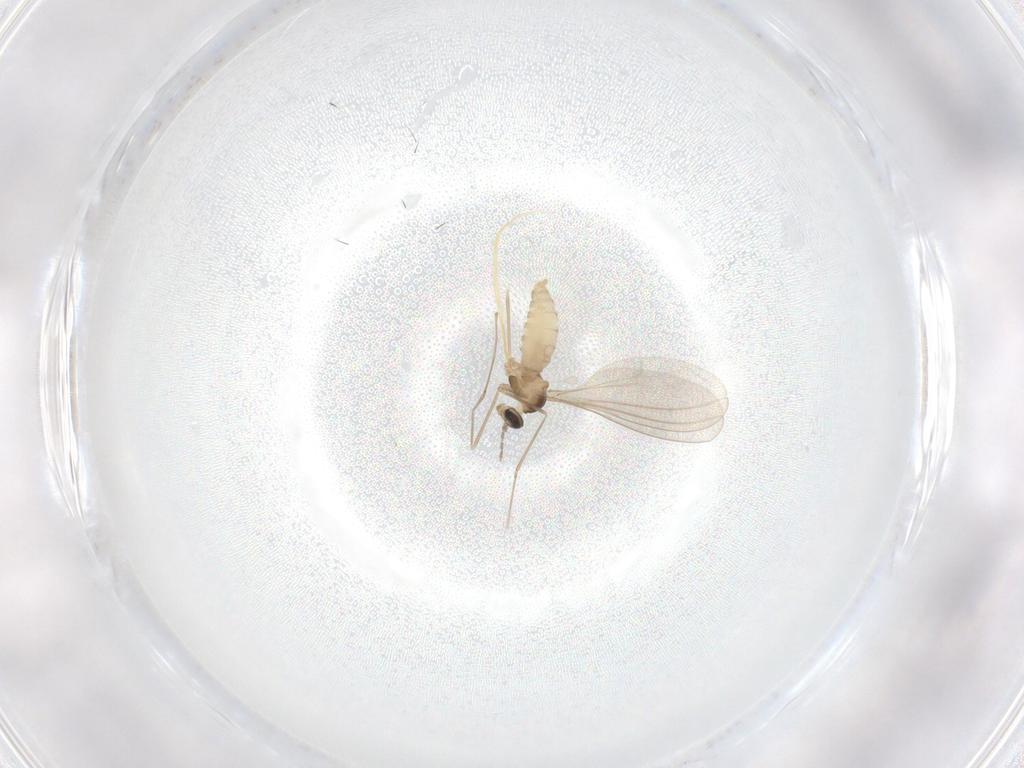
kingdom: Animalia
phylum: Arthropoda
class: Insecta
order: Diptera
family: Cecidomyiidae
